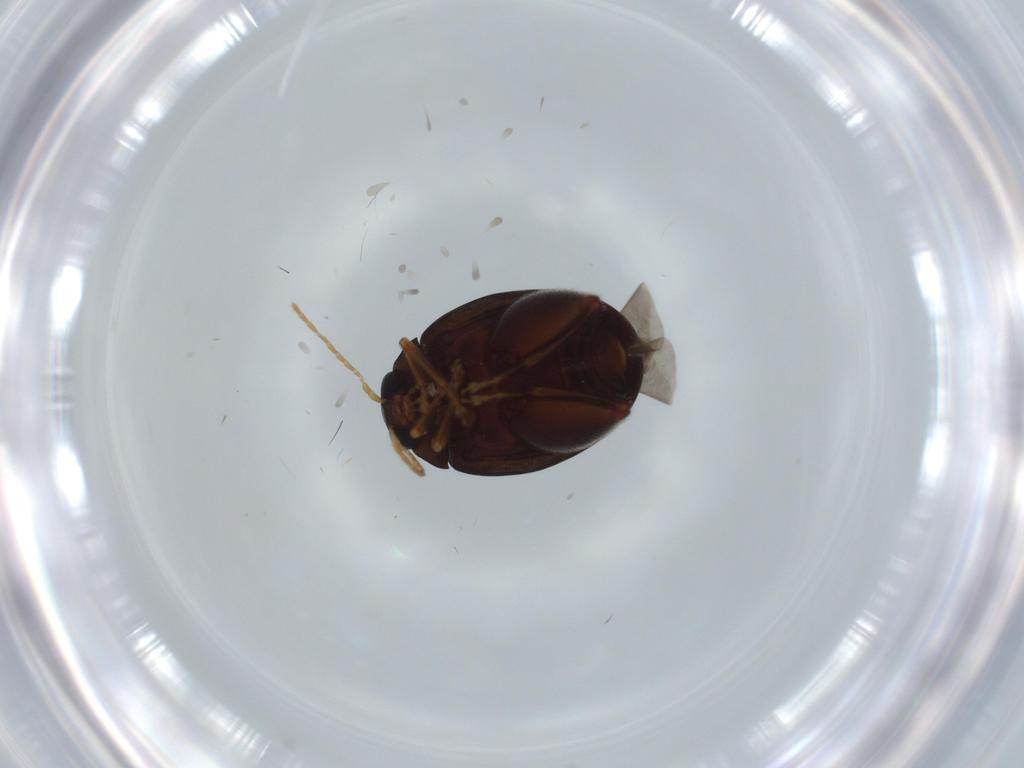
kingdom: Animalia
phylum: Arthropoda
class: Insecta
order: Coleoptera
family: Chrysomelidae
